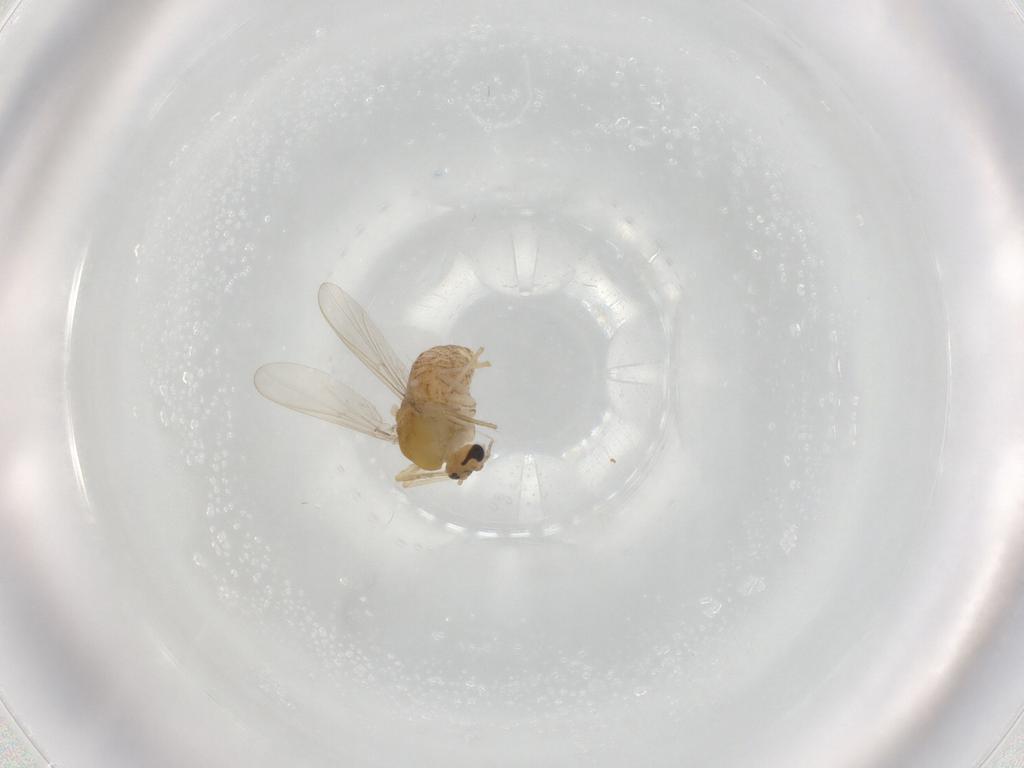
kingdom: Animalia
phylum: Arthropoda
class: Insecta
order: Diptera
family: Chironomidae
